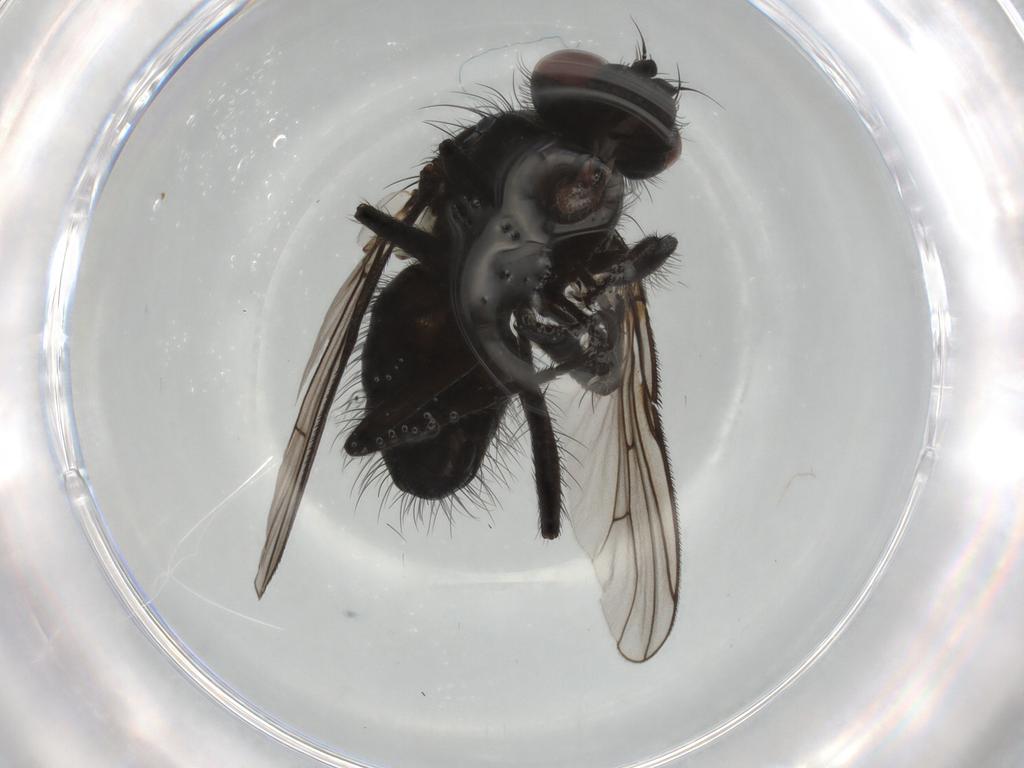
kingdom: Animalia
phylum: Arthropoda
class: Insecta
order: Diptera
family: Muscidae
